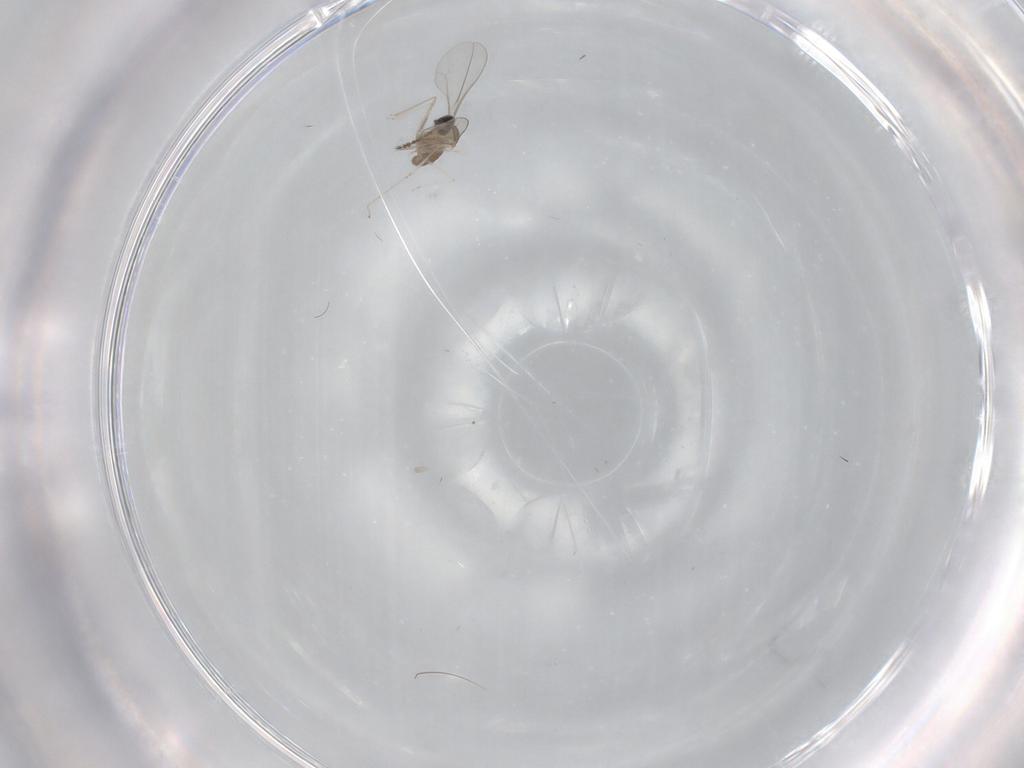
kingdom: Animalia
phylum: Arthropoda
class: Insecta
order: Diptera
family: Cecidomyiidae
